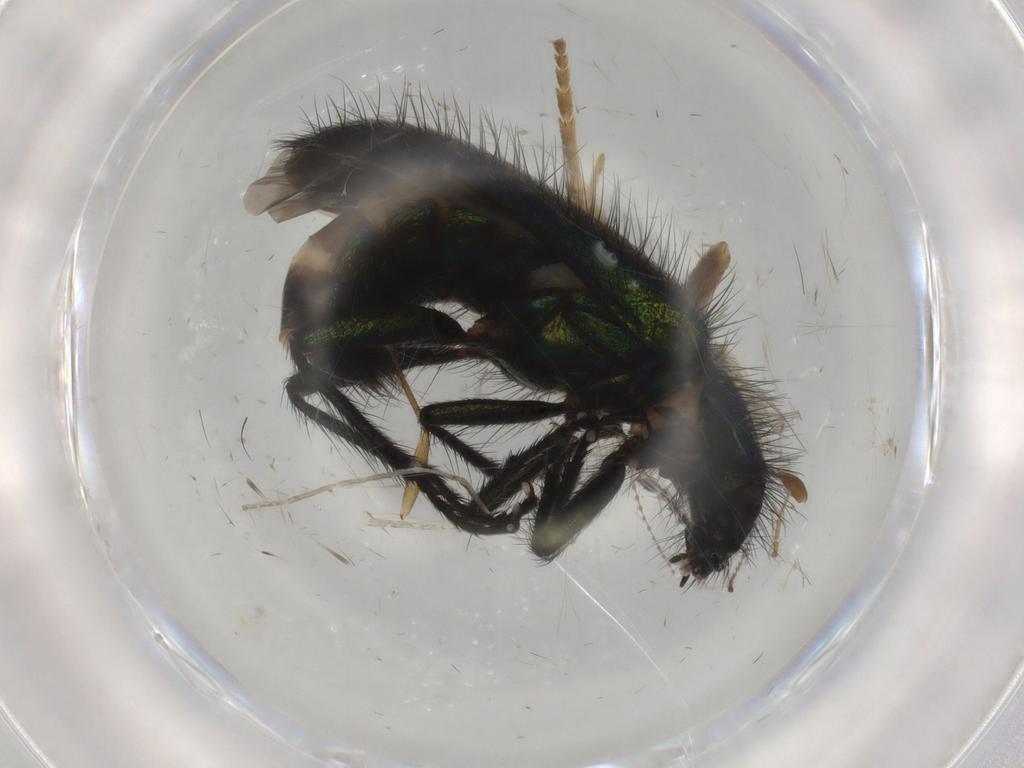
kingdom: Animalia
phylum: Arthropoda
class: Insecta
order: Coleoptera
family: Melyridae
